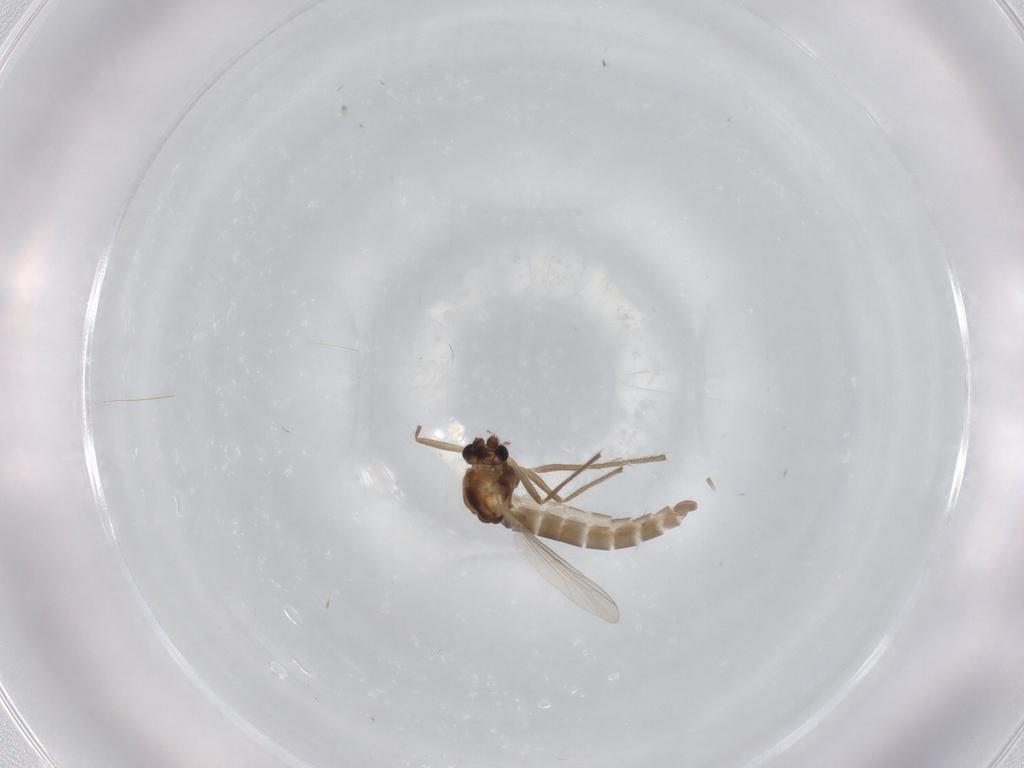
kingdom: Animalia
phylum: Arthropoda
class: Insecta
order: Diptera
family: Chironomidae
